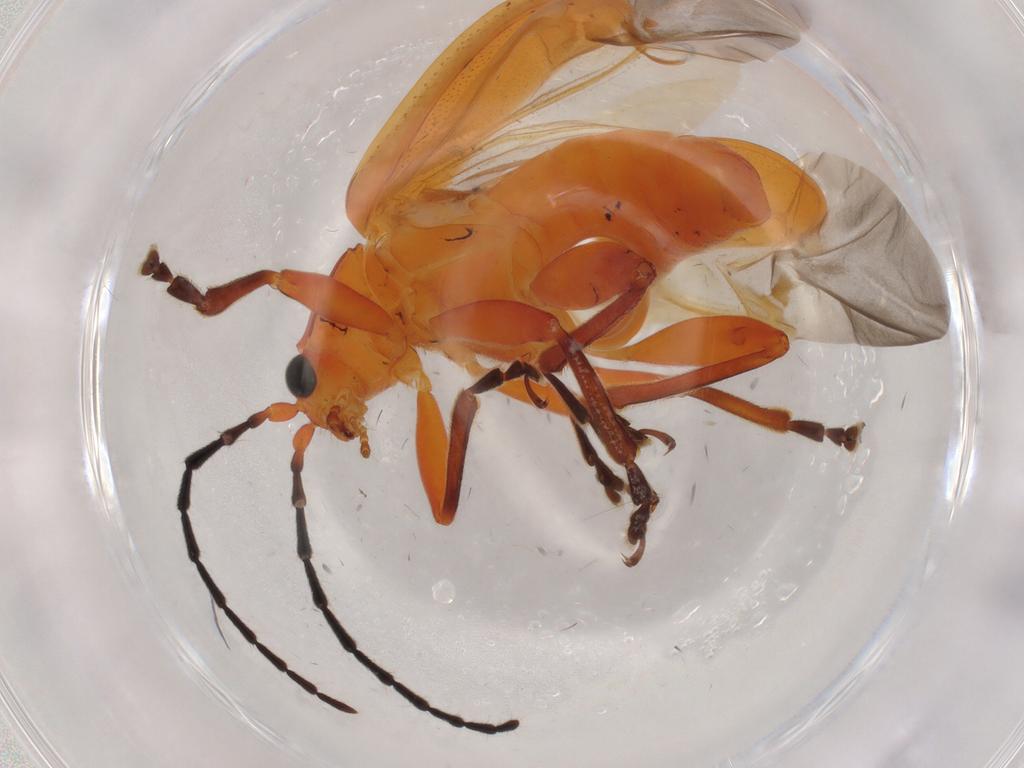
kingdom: Animalia
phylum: Arthropoda
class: Insecta
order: Coleoptera
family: Chrysomelidae
